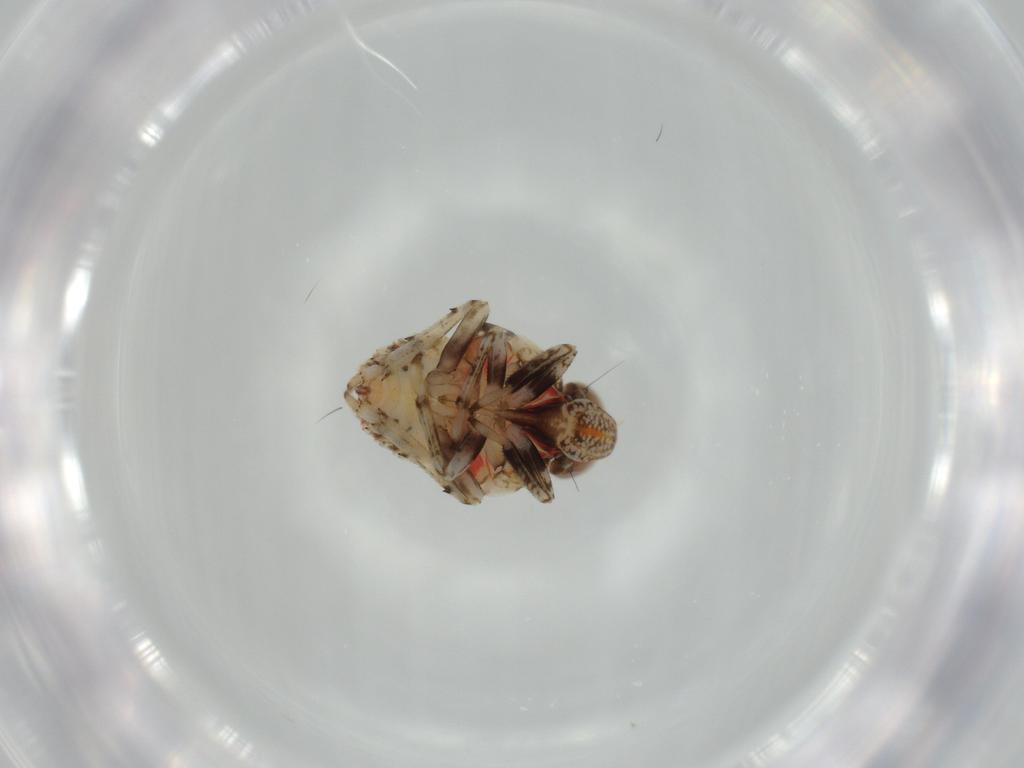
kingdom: Animalia
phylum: Arthropoda
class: Insecta
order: Hemiptera
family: Issidae
